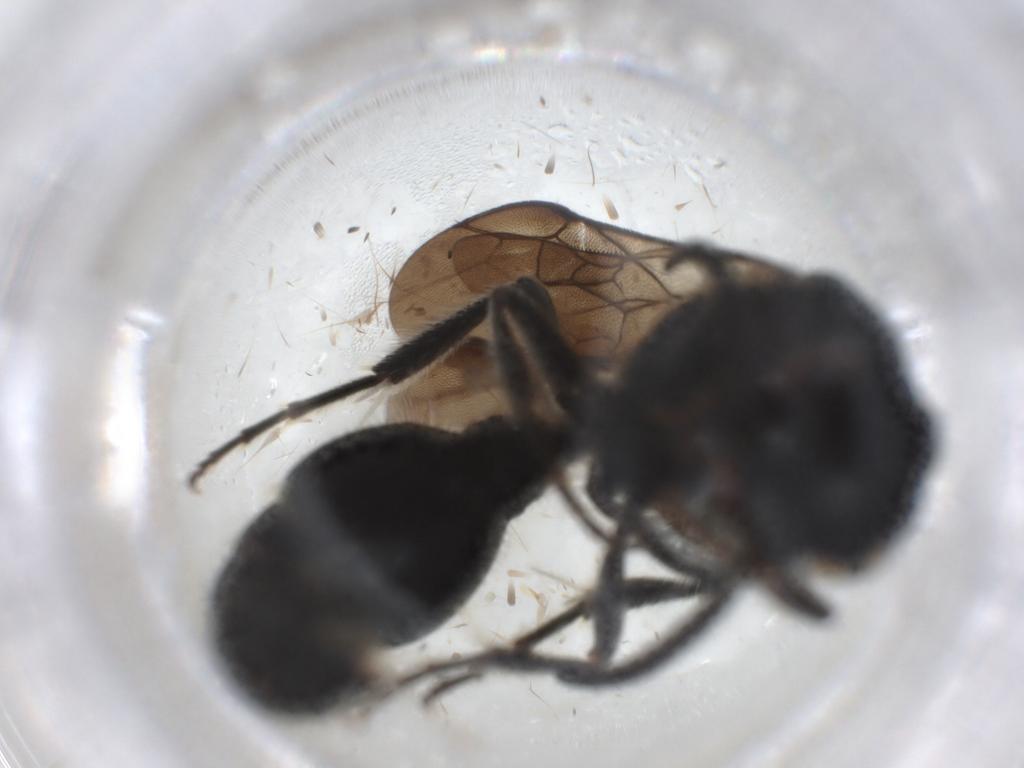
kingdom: Animalia
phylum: Arthropoda
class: Insecta
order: Hymenoptera
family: Mutillidae
